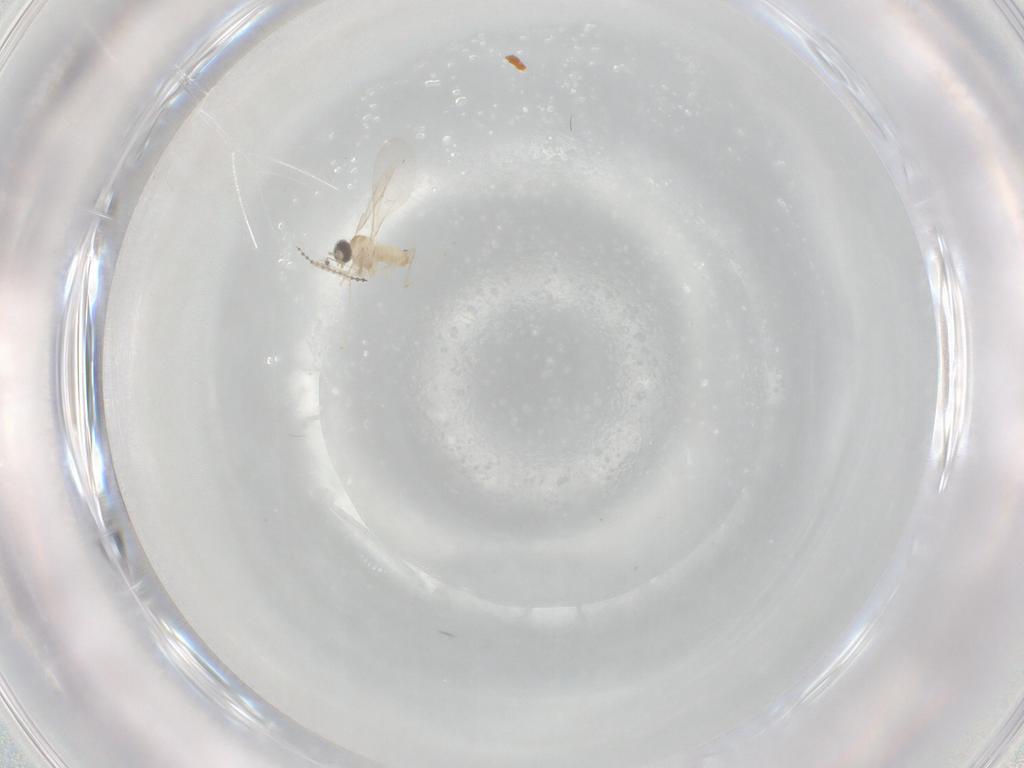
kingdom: Animalia
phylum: Arthropoda
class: Insecta
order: Diptera
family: Cecidomyiidae
